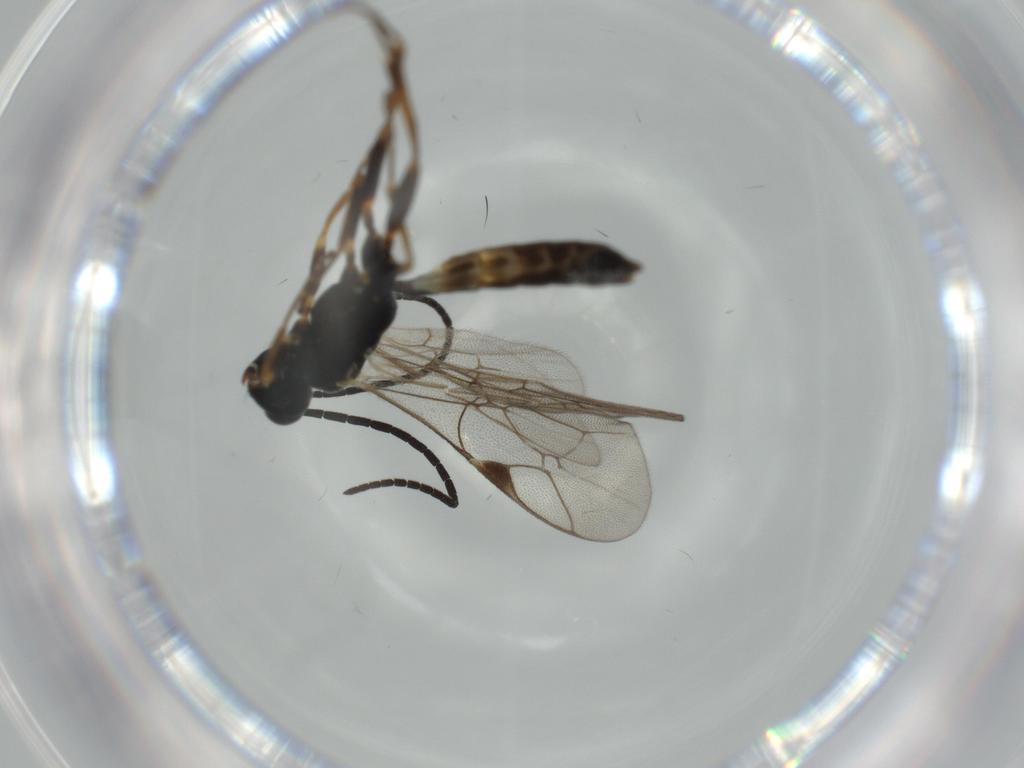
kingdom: Animalia
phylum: Arthropoda
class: Insecta
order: Hymenoptera
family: Ichneumonidae
